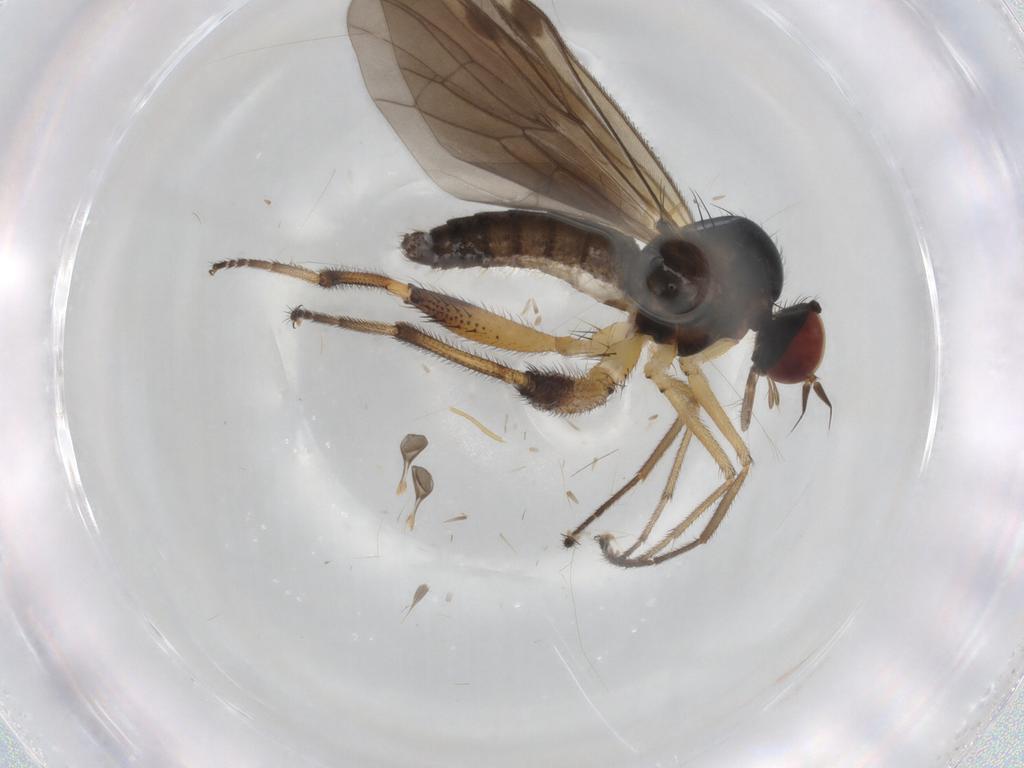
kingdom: Animalia
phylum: Arthropoda
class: Insecta
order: Diptera
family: Hybotidae
